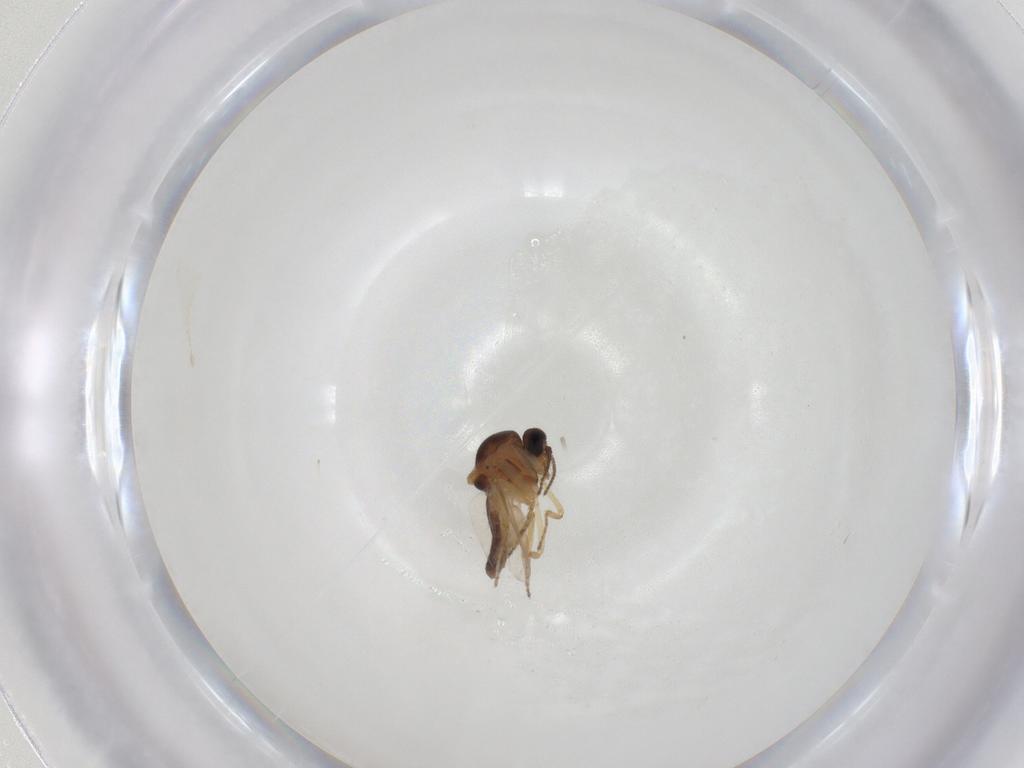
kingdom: Animalia
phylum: Arthropoda
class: Insecta
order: Diptera
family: Ceratopogonidae
